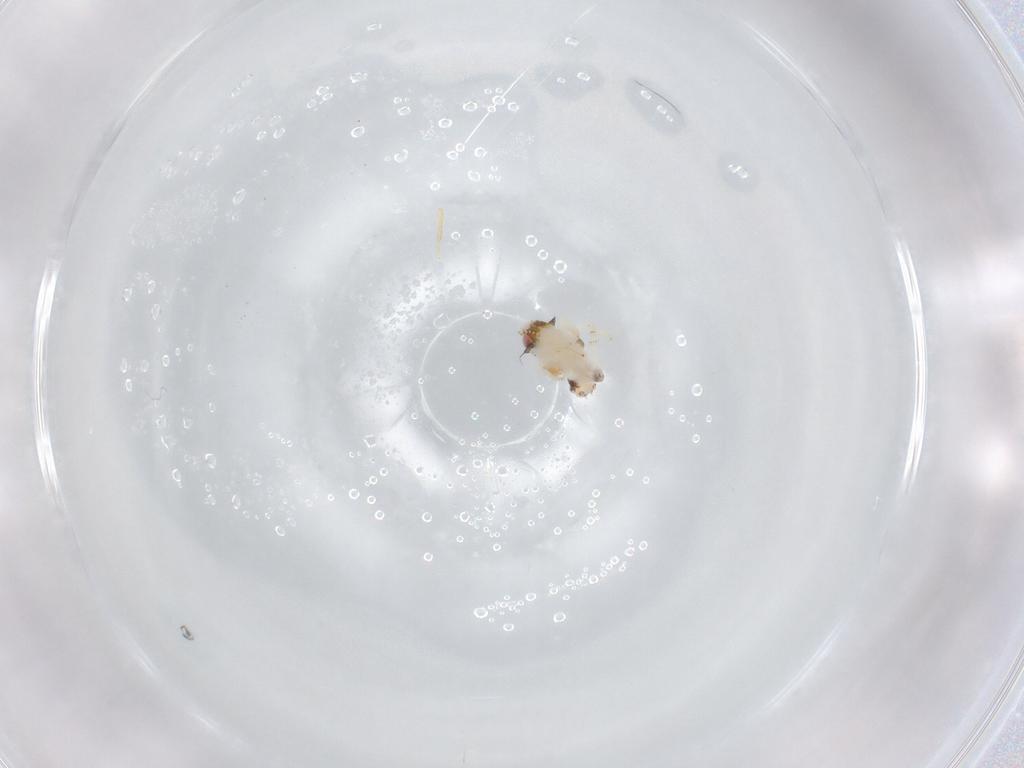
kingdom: Animalia
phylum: Arthropoda
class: Insecta
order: Hemiptera
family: Nogodinidae
